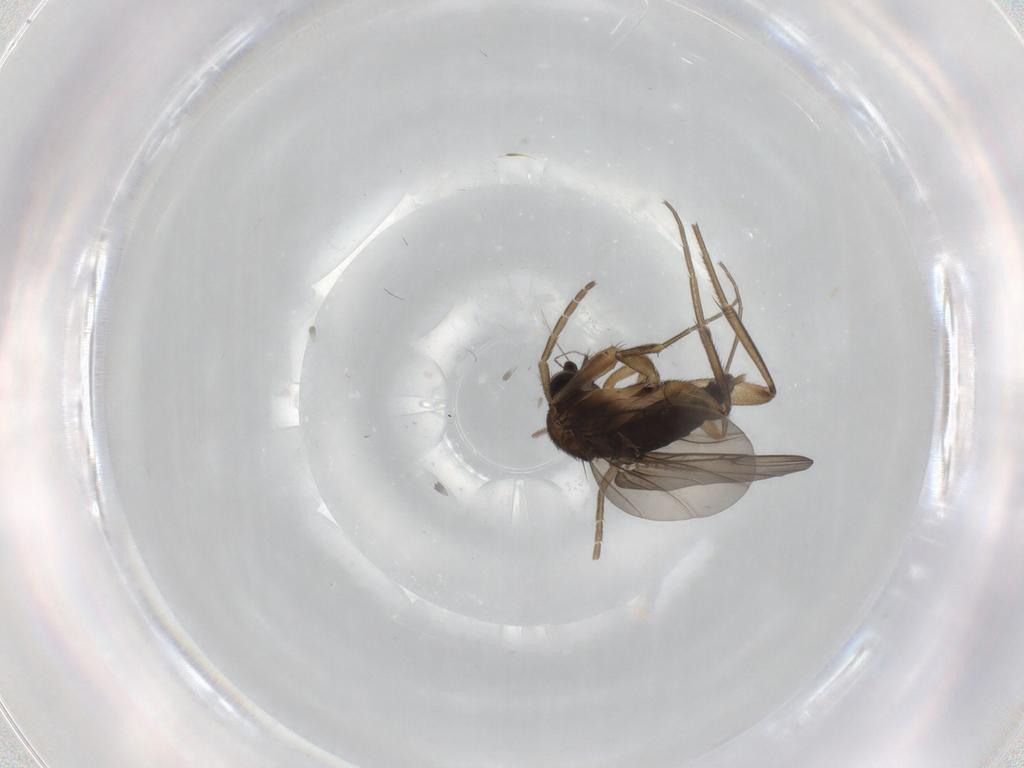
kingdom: Animalia
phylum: Arthropoda
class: Insecta
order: Diptera
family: Phoridae
